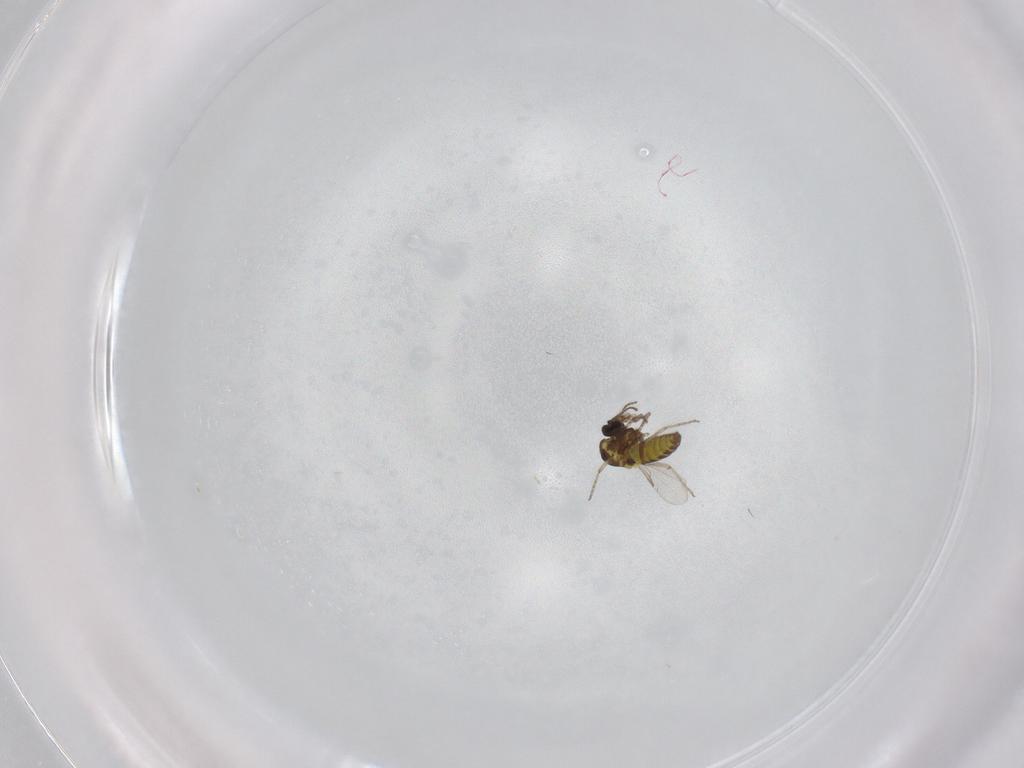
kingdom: Animalia
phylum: Arthropoda
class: Insecta
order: Diptera
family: Ceratopogonidae
